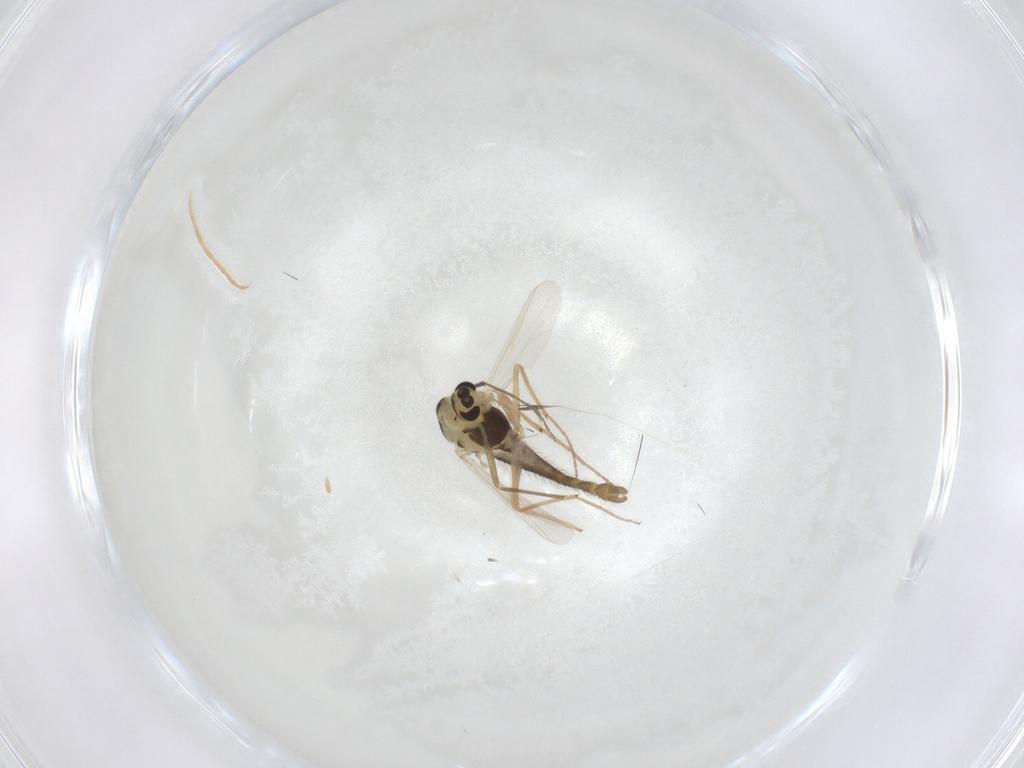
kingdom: Animalia
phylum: Arthropoda
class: Insecta
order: Diptera
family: Chironomidae
